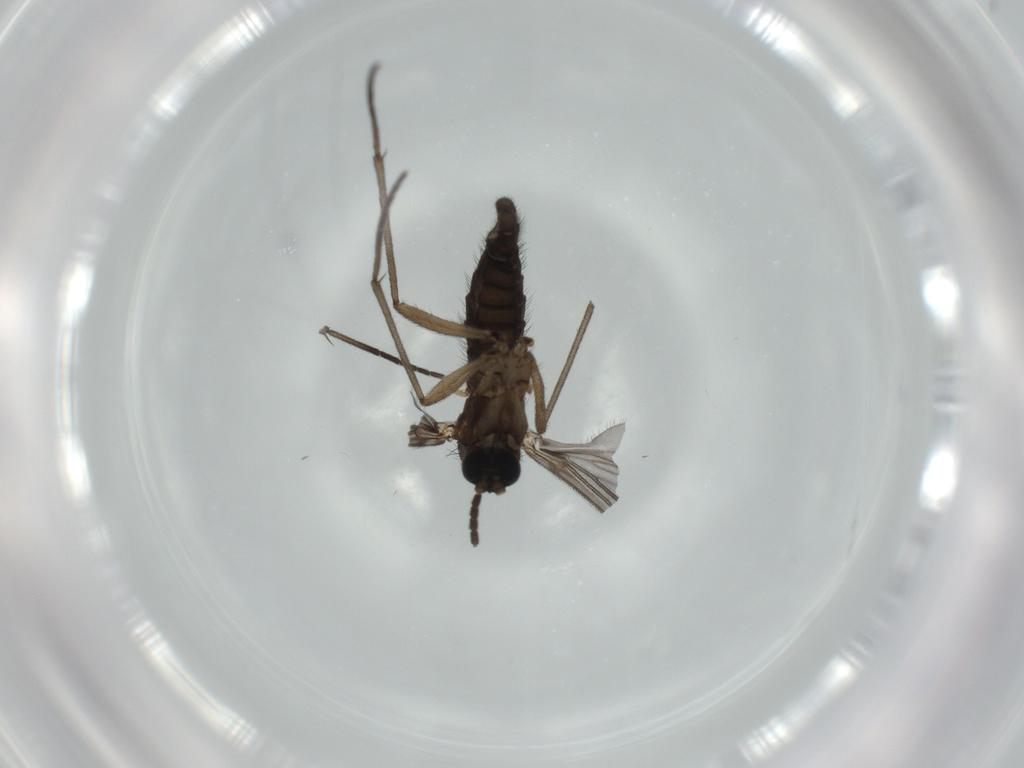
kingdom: Animalia
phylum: Arthropoda
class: Insecta
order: Diptera
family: Sciaridae
